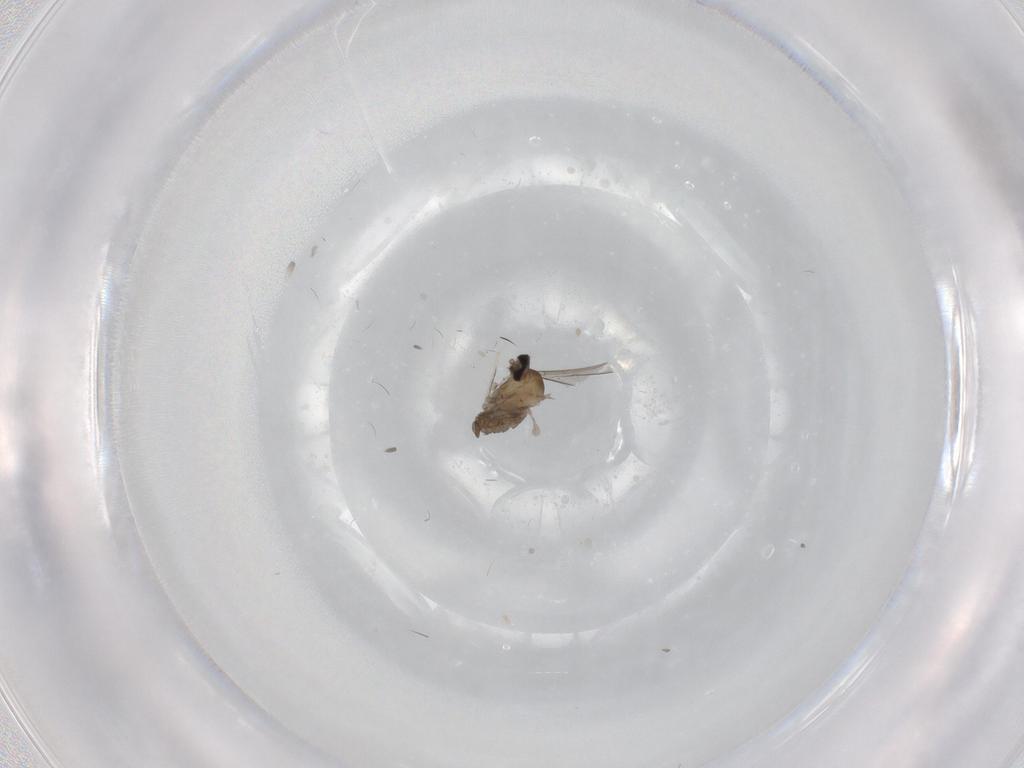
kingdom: Animalia
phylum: Arthropoda
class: Insecta
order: Diptera
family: Cecidomyiidae
